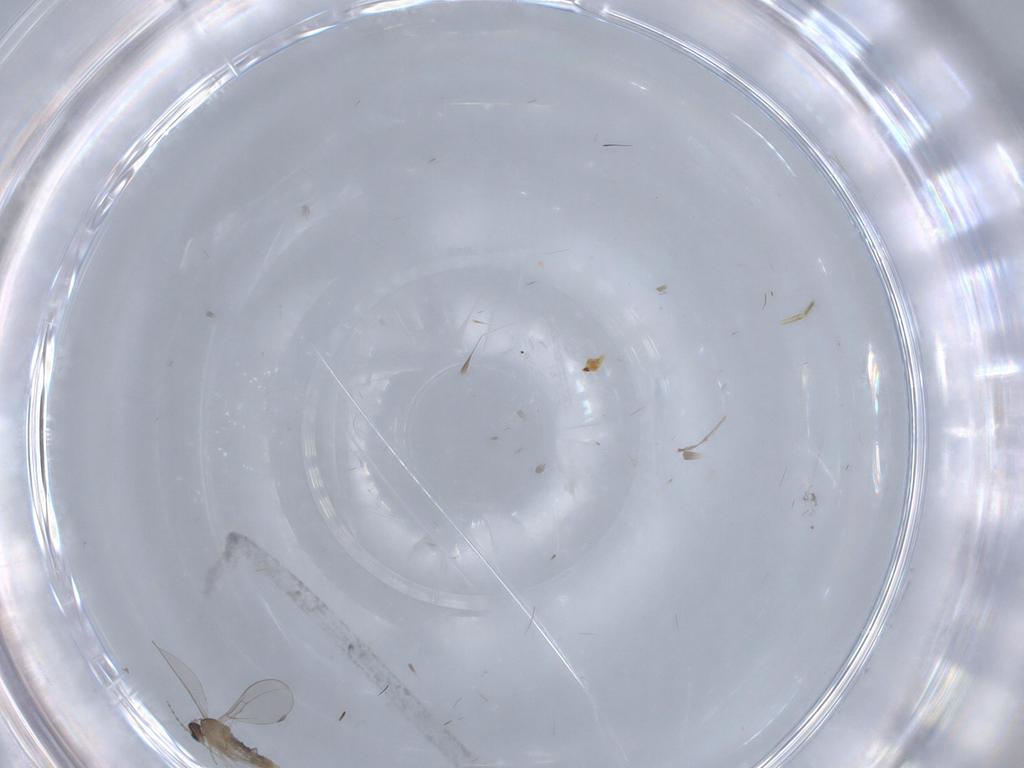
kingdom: Animalia
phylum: Arthropoda
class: Insecta
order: Diptera
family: Cecidomyiidae
